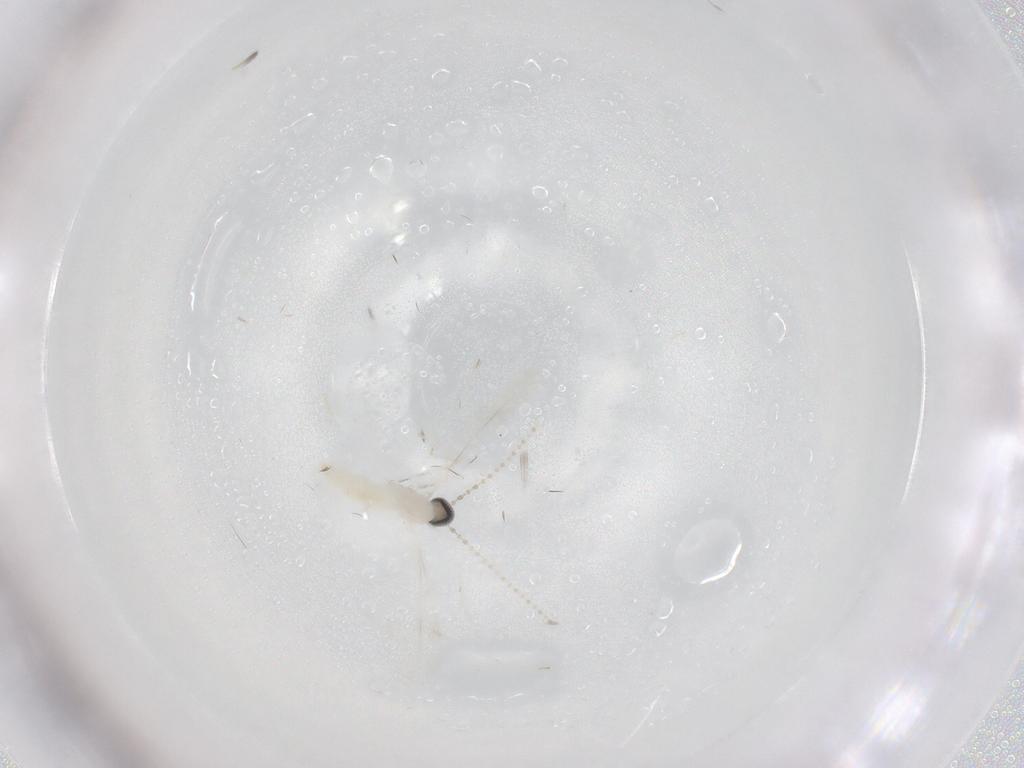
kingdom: Animalia
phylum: Arthropoda
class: Insecta
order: Diptera
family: Cecidomyiidae
